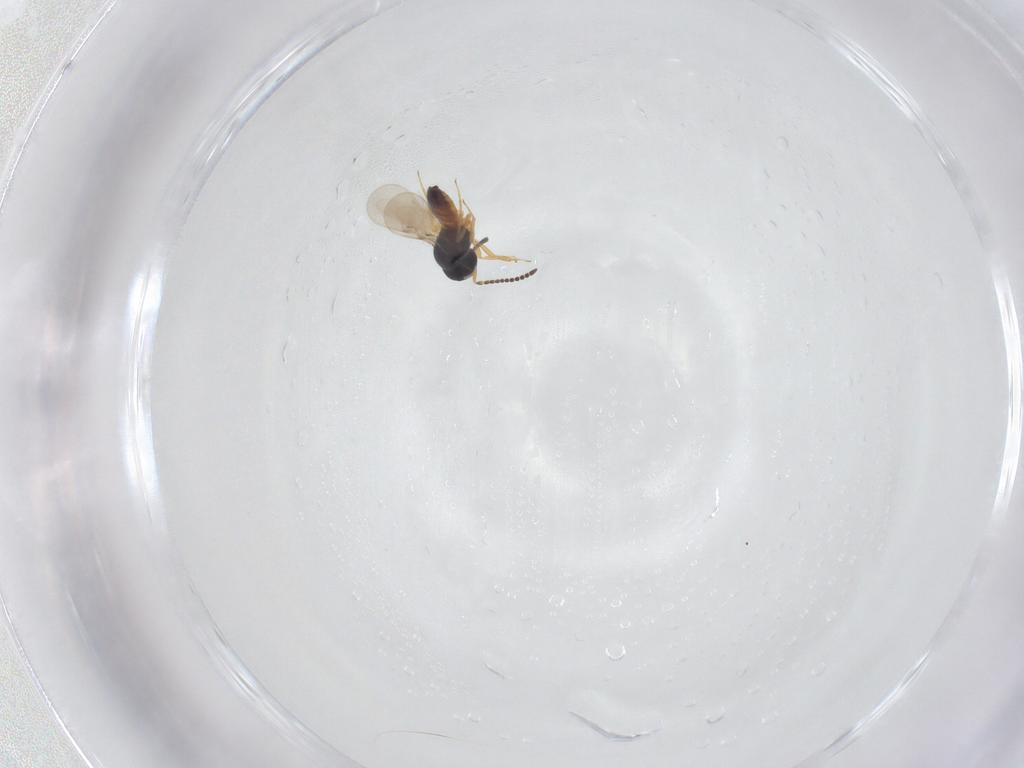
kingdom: Animalia
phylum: Arthropoda
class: Insecta
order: Hymenoptera
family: Scelionidae
